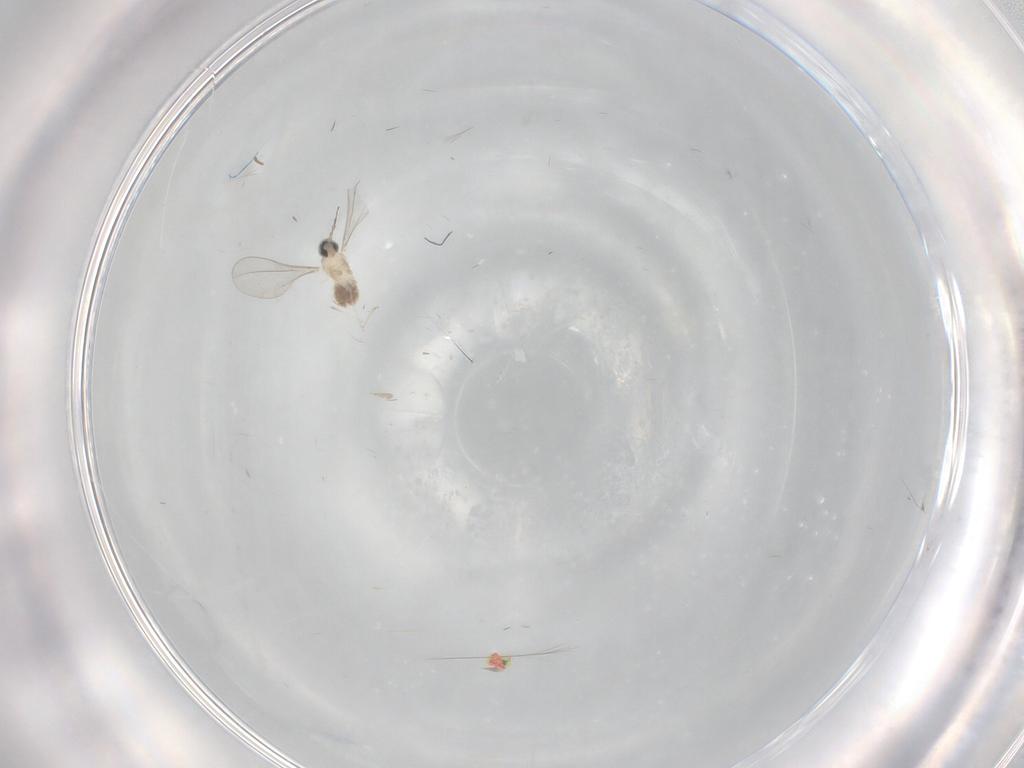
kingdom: Animalia
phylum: Arthropoda
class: Insecta
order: Diptera
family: Cecidomyiidae
